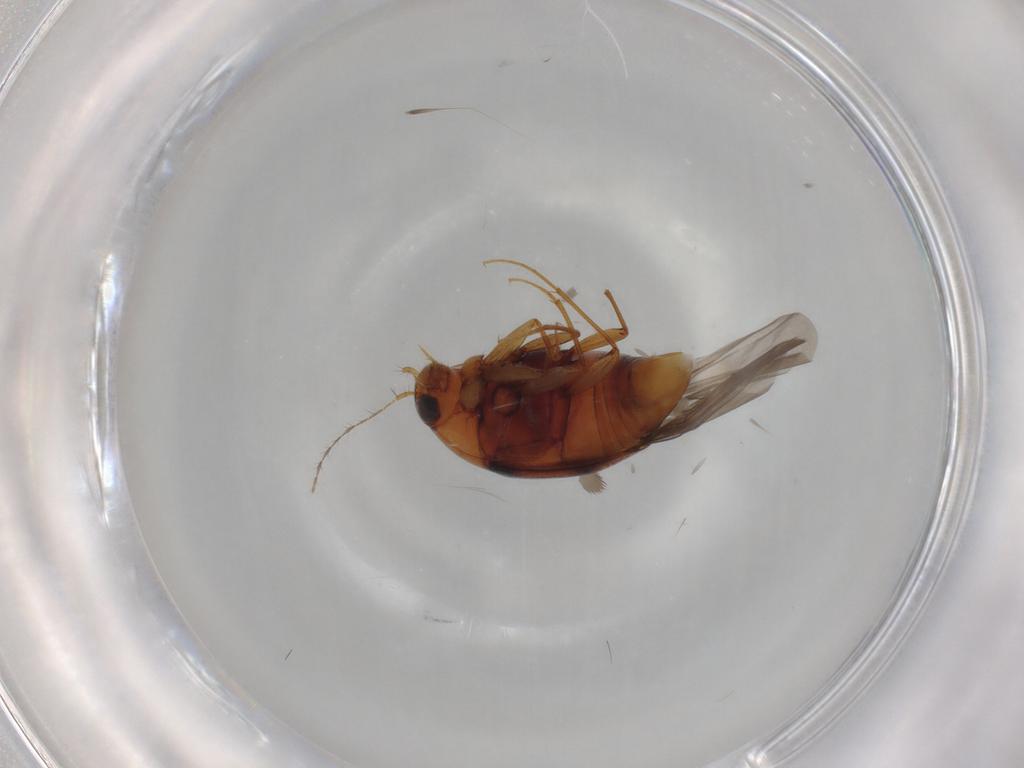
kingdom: Animalia
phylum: Arthropoda
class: Insecta
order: Coleoptera
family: Staphylinidae
